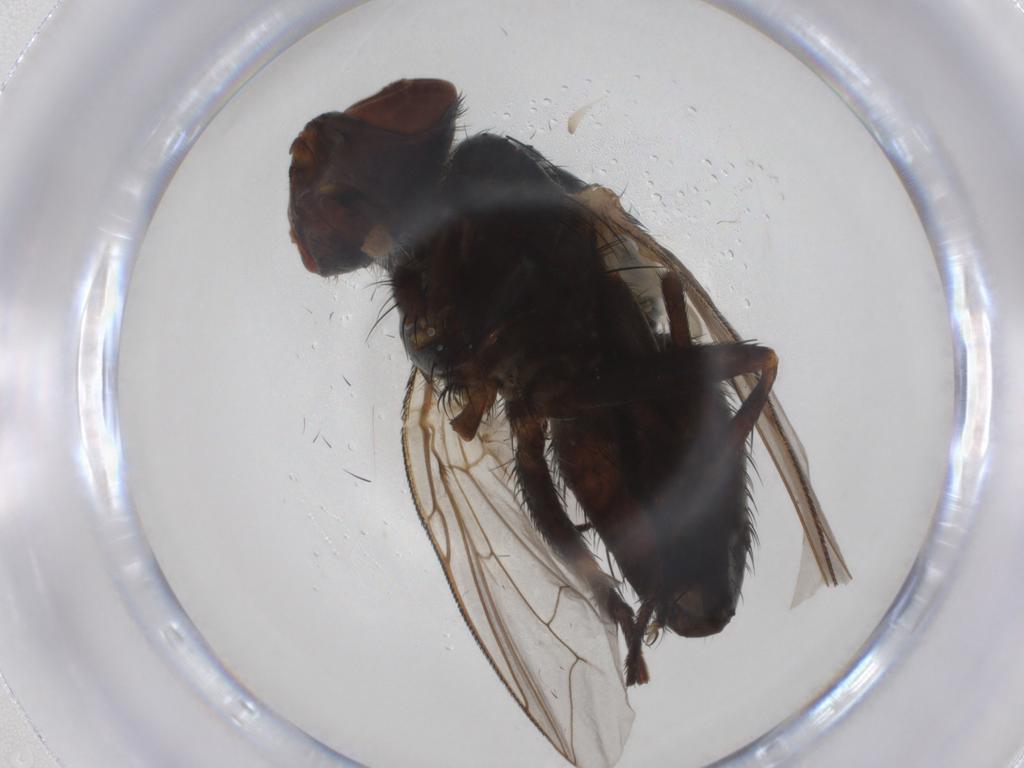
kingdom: Animalia
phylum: Arthropoda
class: Insecta
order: Diptera
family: Sarcophagidae
